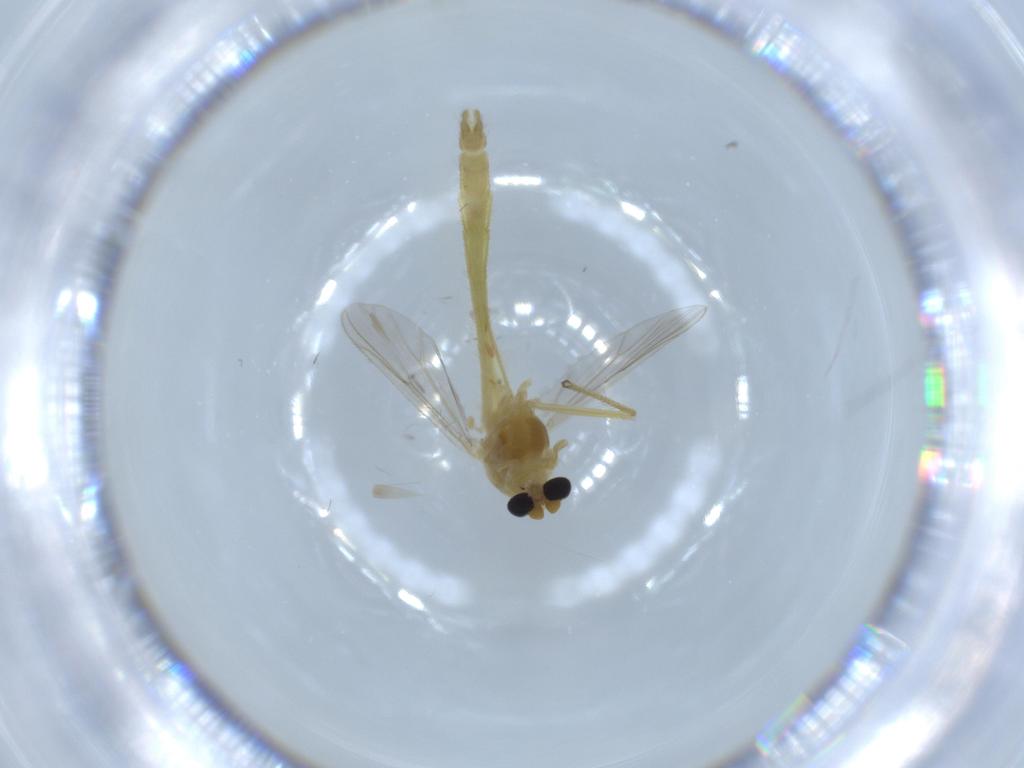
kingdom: Animalia
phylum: Arthropoda
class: Insecta
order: Diptera
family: Chironomidae
